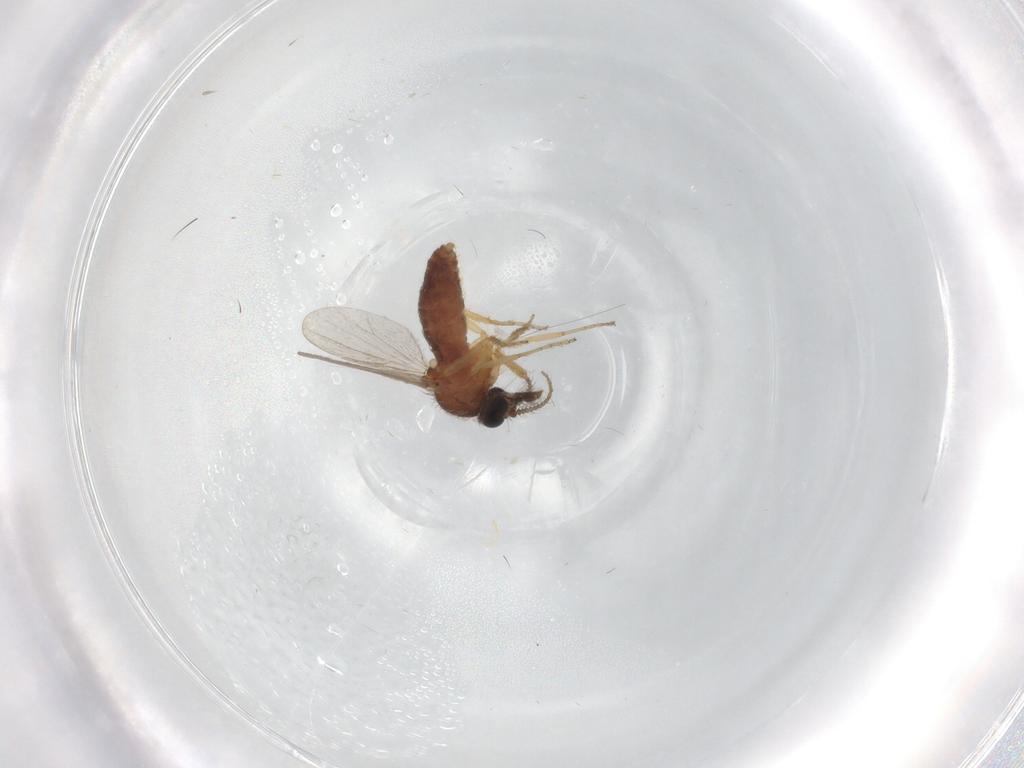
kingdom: Animalia
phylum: Arthropoda
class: Insecta
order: Diptera
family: Ceratopogonidae
